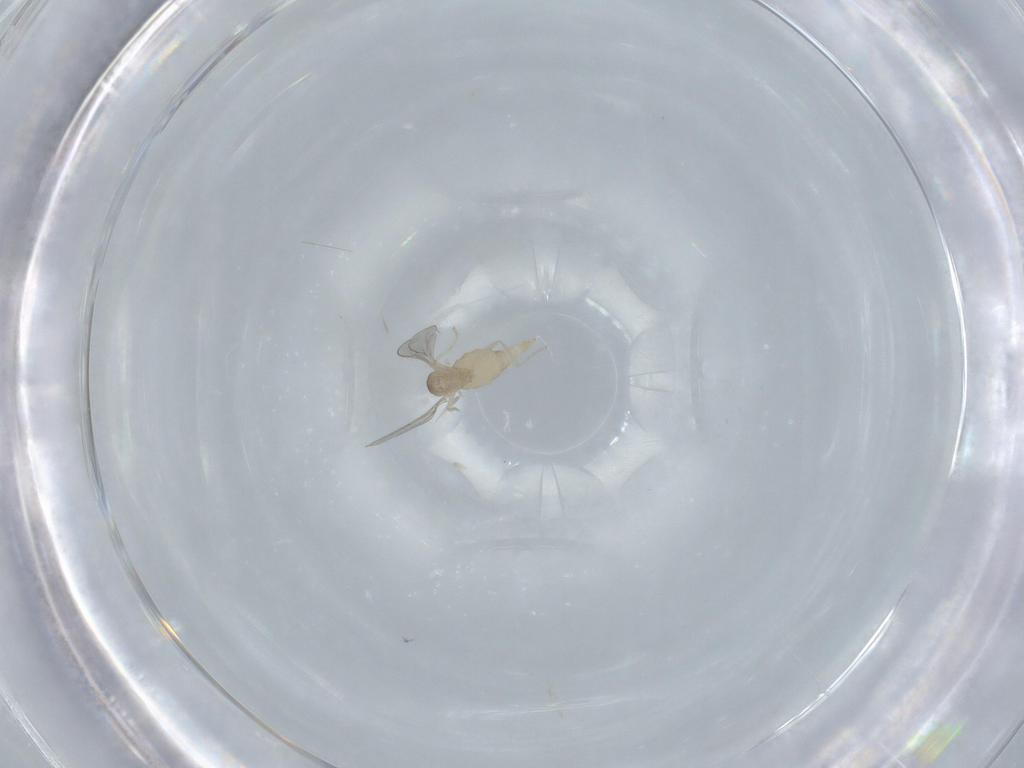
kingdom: Animalia
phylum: Arthropoda
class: Insecta
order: Diptera
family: Cecidomyiidae
